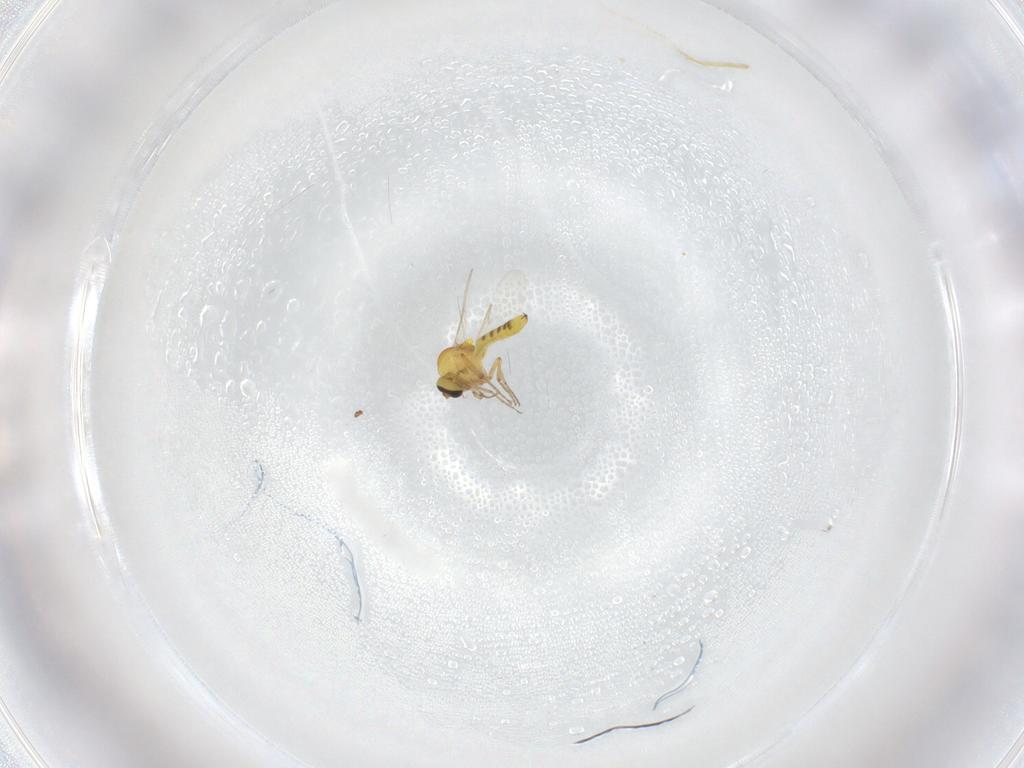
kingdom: Animalia
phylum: Arthropoda
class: Insecta
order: Diptera
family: Ceratopogonidae
